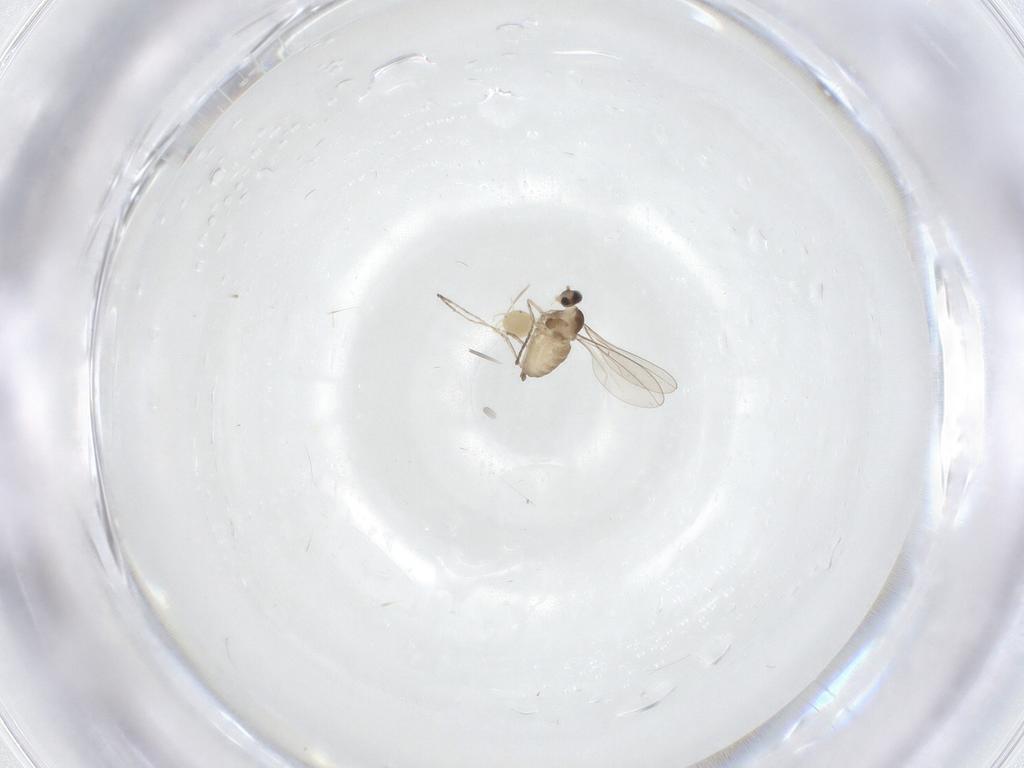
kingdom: Animalia
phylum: Arthropoda
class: Insecta
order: Diptera
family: Cecidomyiidae
